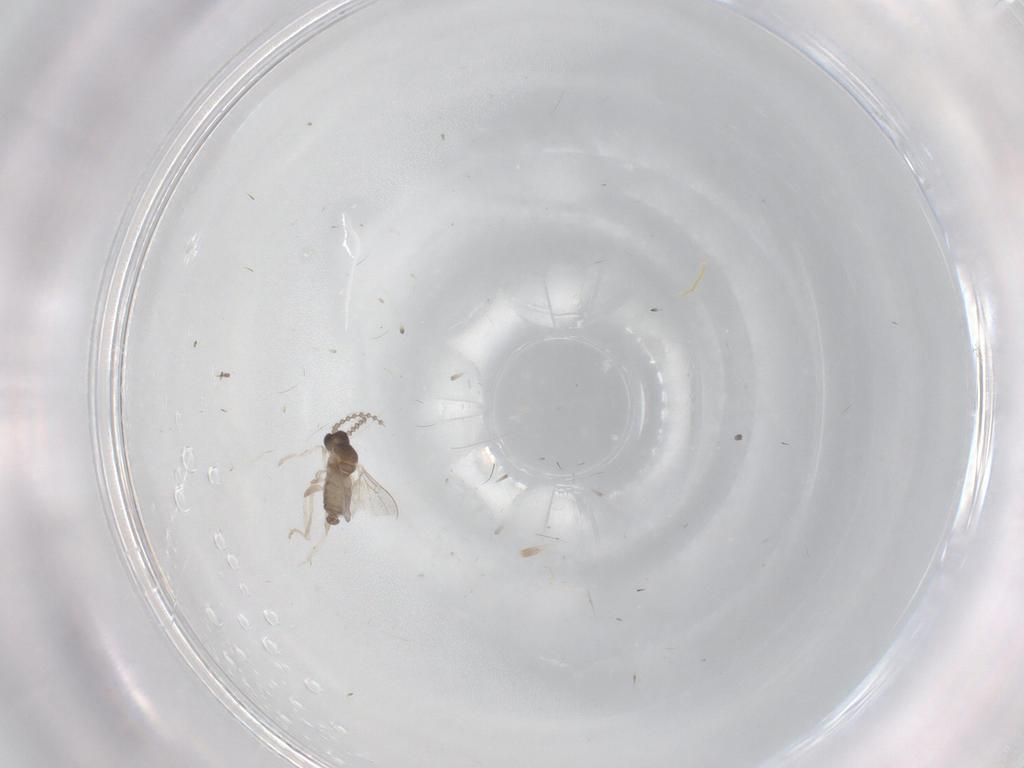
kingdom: Animalia
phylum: Arthropoda
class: Insecta
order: Diptera
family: Cecidomyiidae
